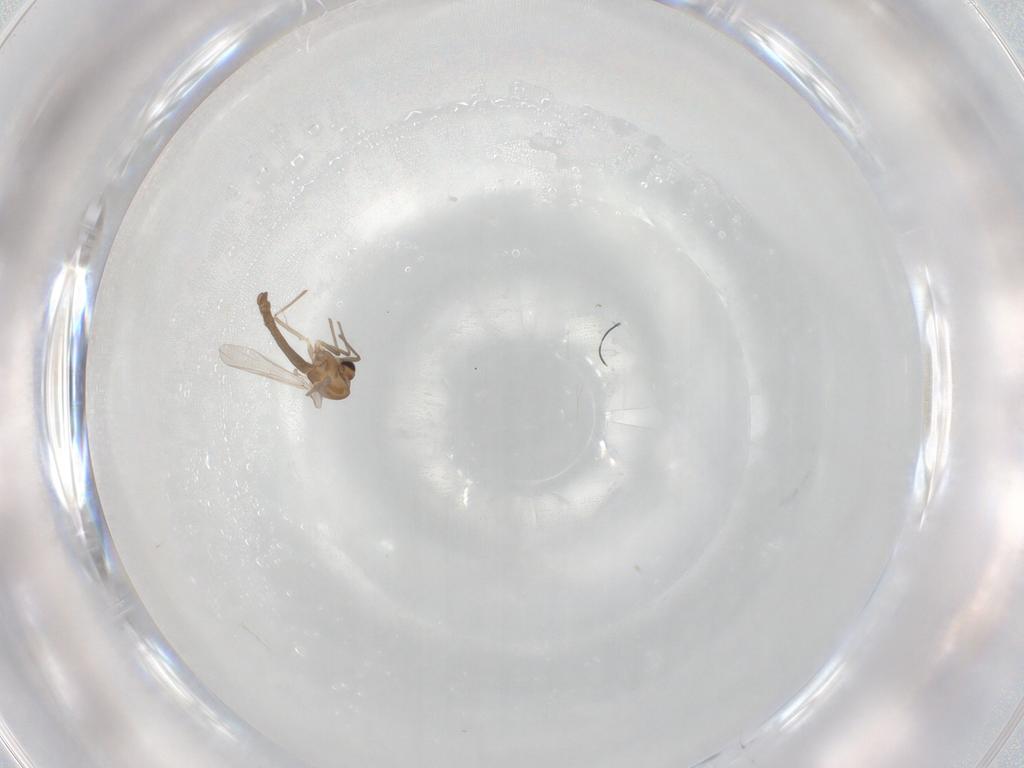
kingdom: Animalia
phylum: Arthropoda
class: Insecta
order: Diptera
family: Chironomidae
